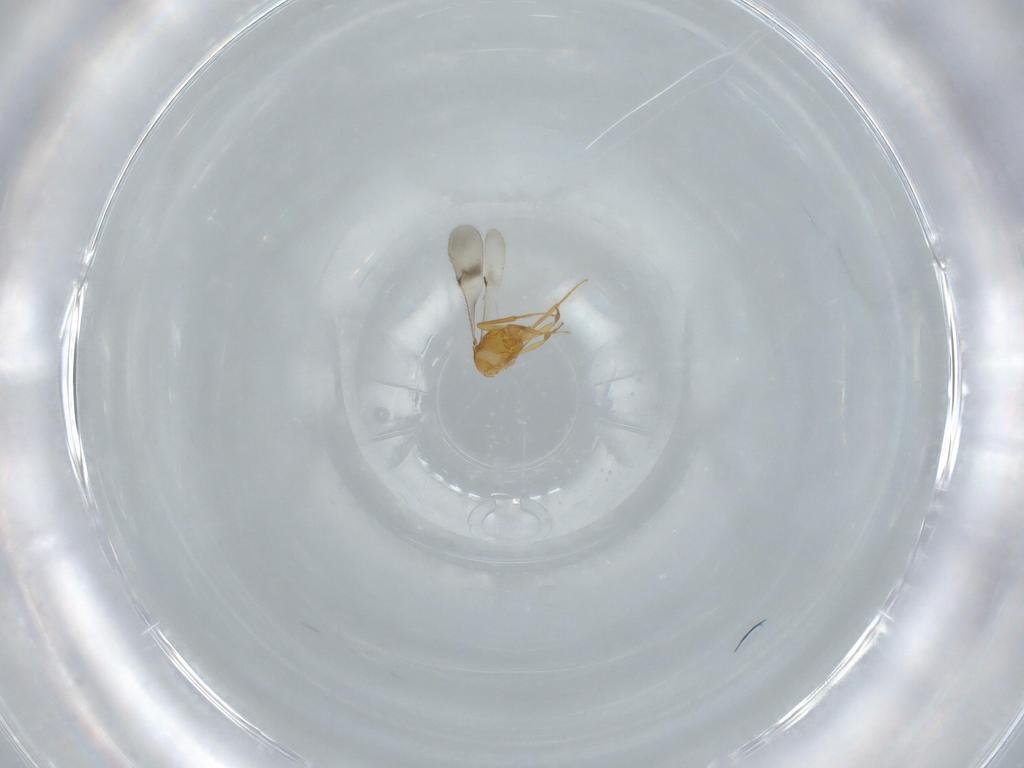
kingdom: Animalia
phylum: Arthropoda
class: Insecta
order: Hymenoptera
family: Scelionidae
